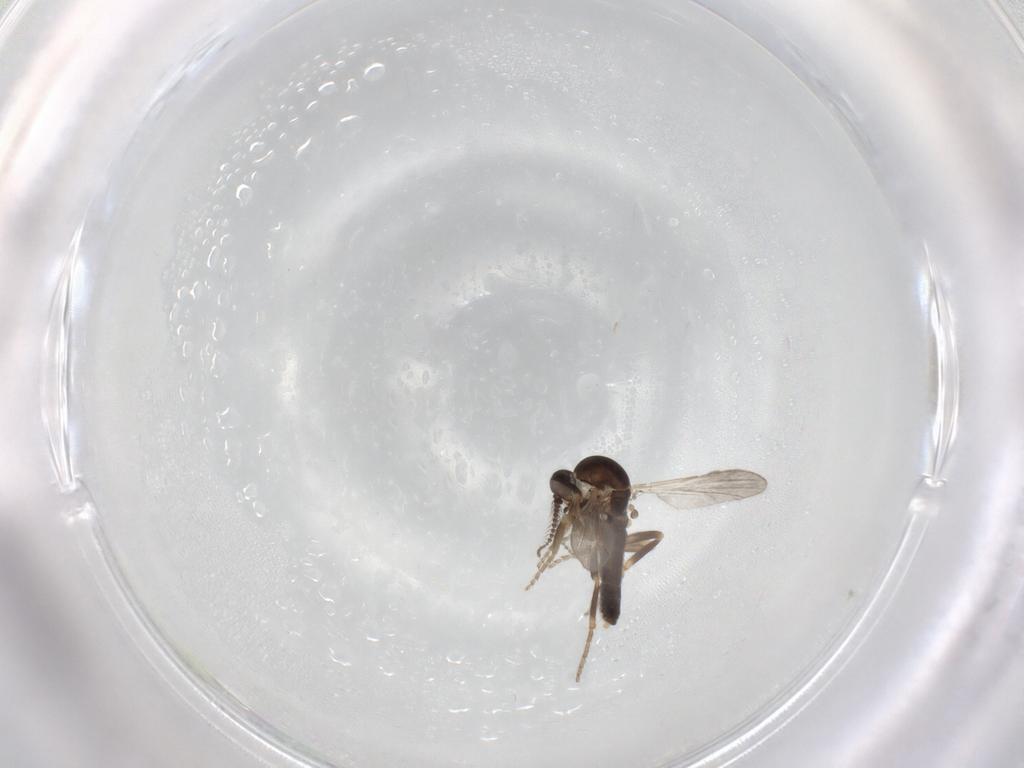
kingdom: Animalia
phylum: Arthropoda
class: Insecta
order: Diptera
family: Ceratopogonidae
